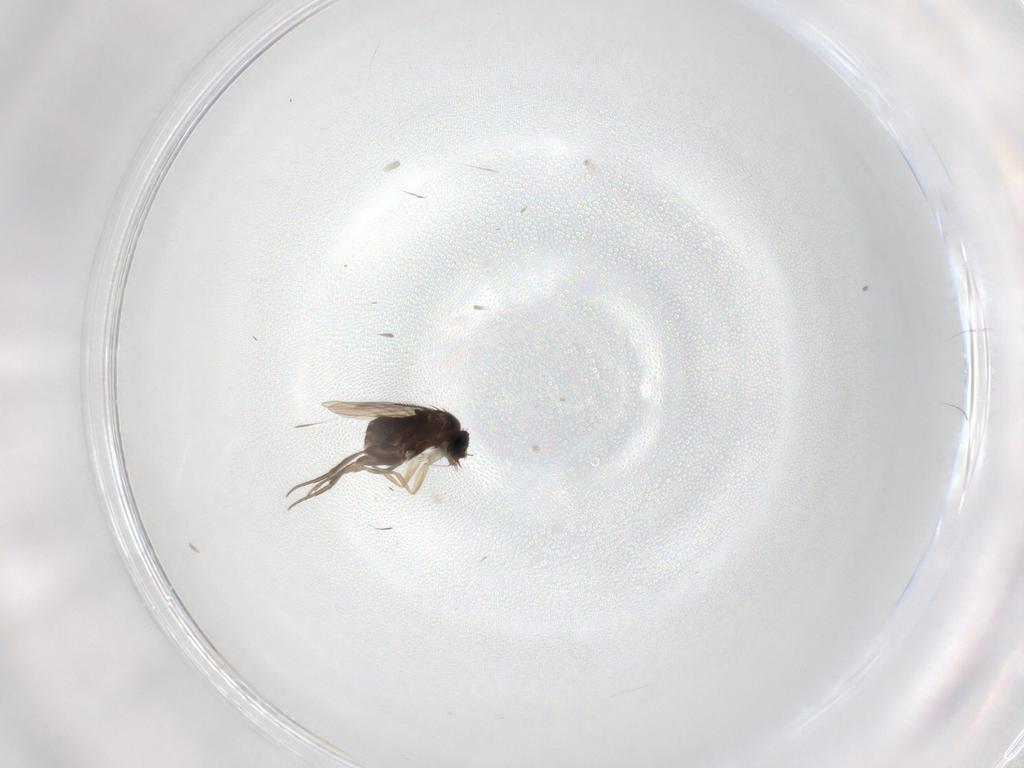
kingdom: Animalia
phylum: Arthropoda
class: Insecta
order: Diptera
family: Phoridae
